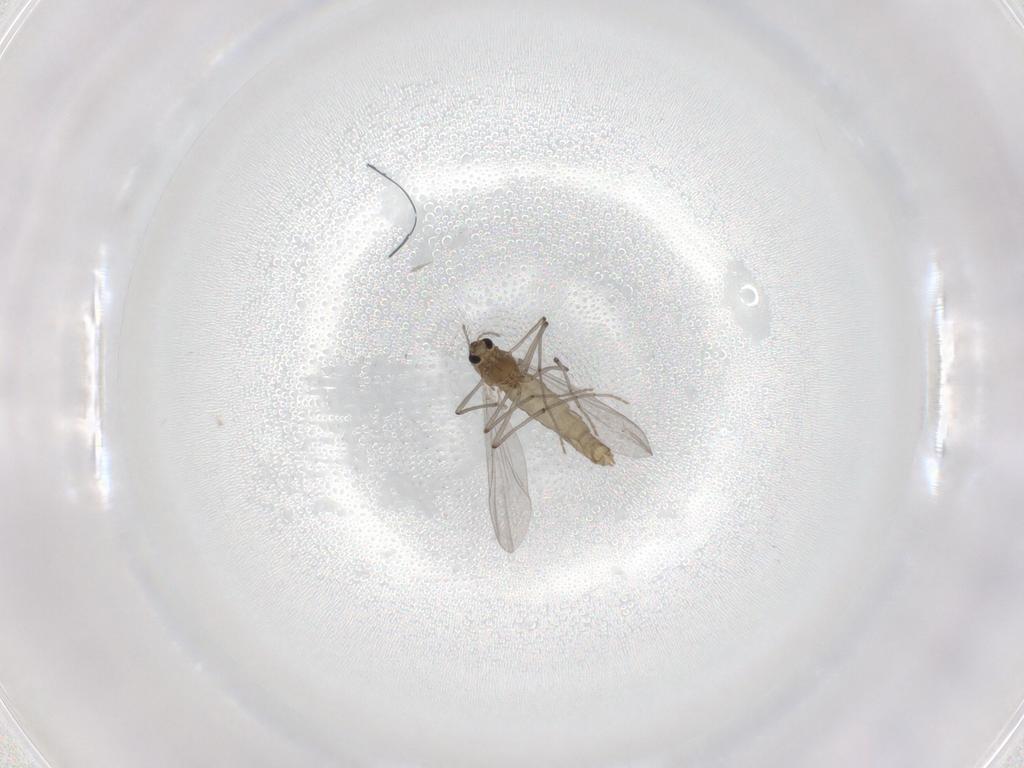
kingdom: Animalia
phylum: Arthropoda
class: Insecta
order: Diptera
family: Chironomidae
